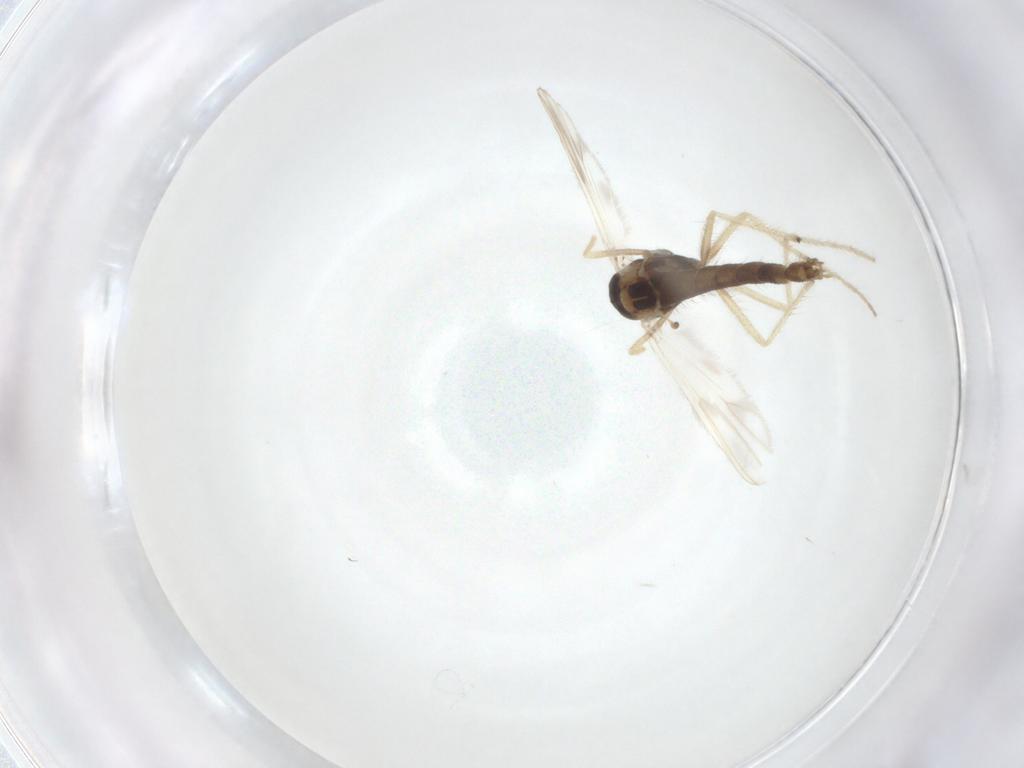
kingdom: Animalia
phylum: Arthropoda
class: Insecta
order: Diptera
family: Chironomidae
